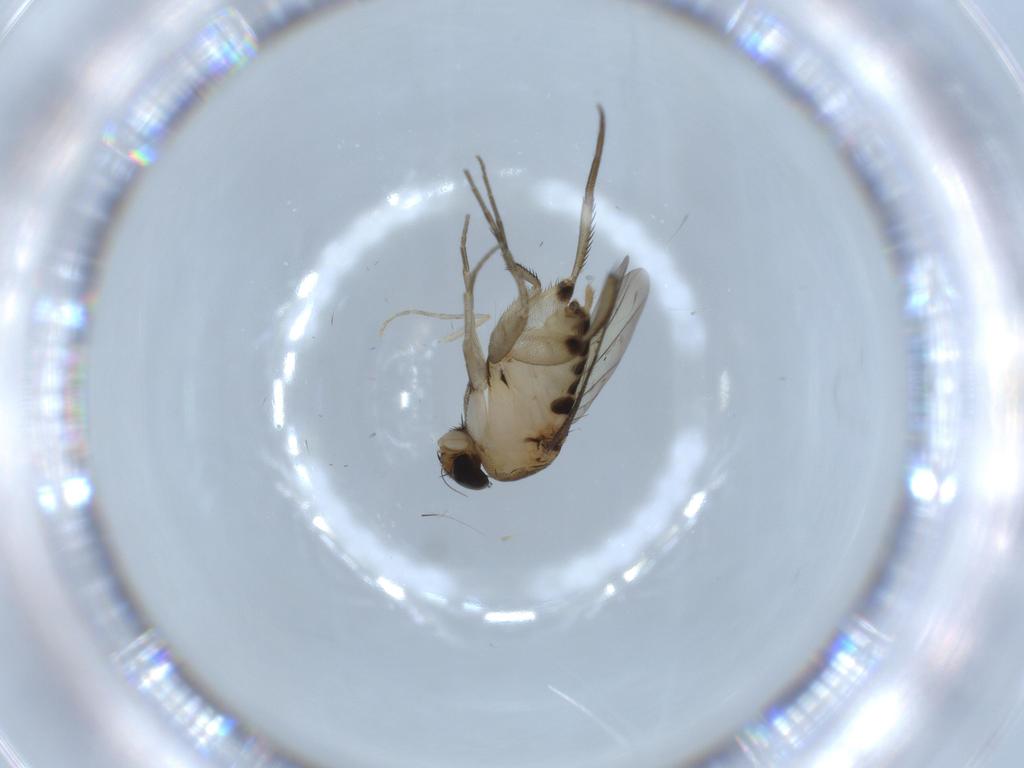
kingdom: Animalia
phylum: Arthropoda
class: Insecta
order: Diptera
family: Phoridae
